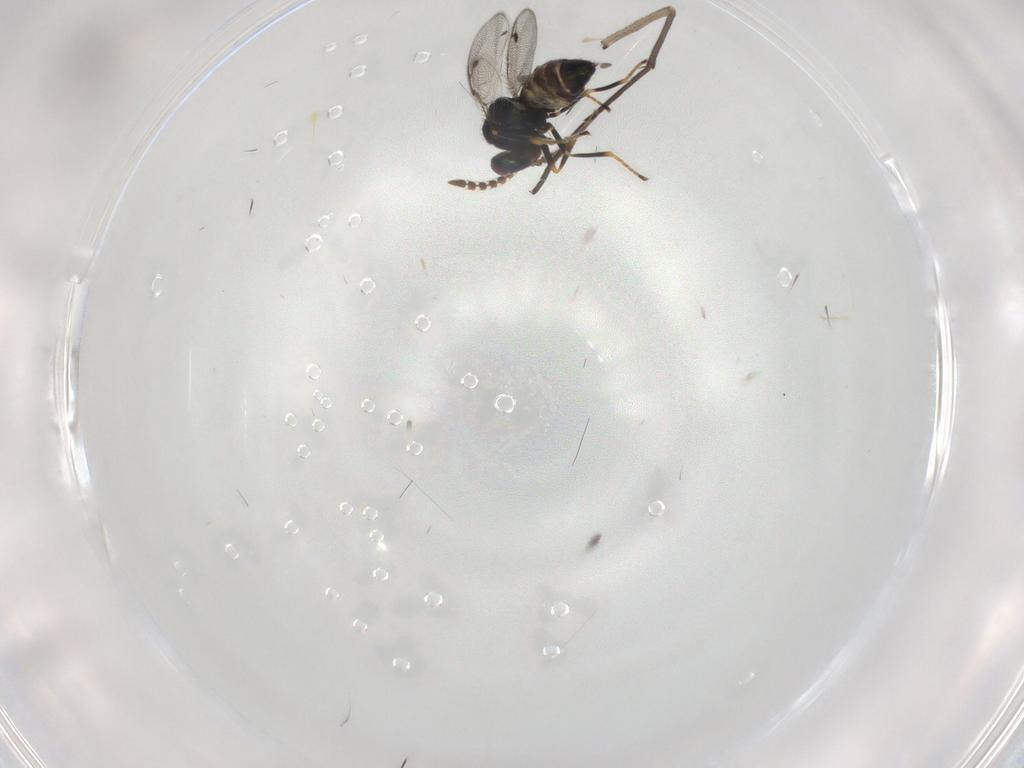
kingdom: Animalia
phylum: Arthropoda
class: Insecta
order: Hymenoptera
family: Pirenidae
